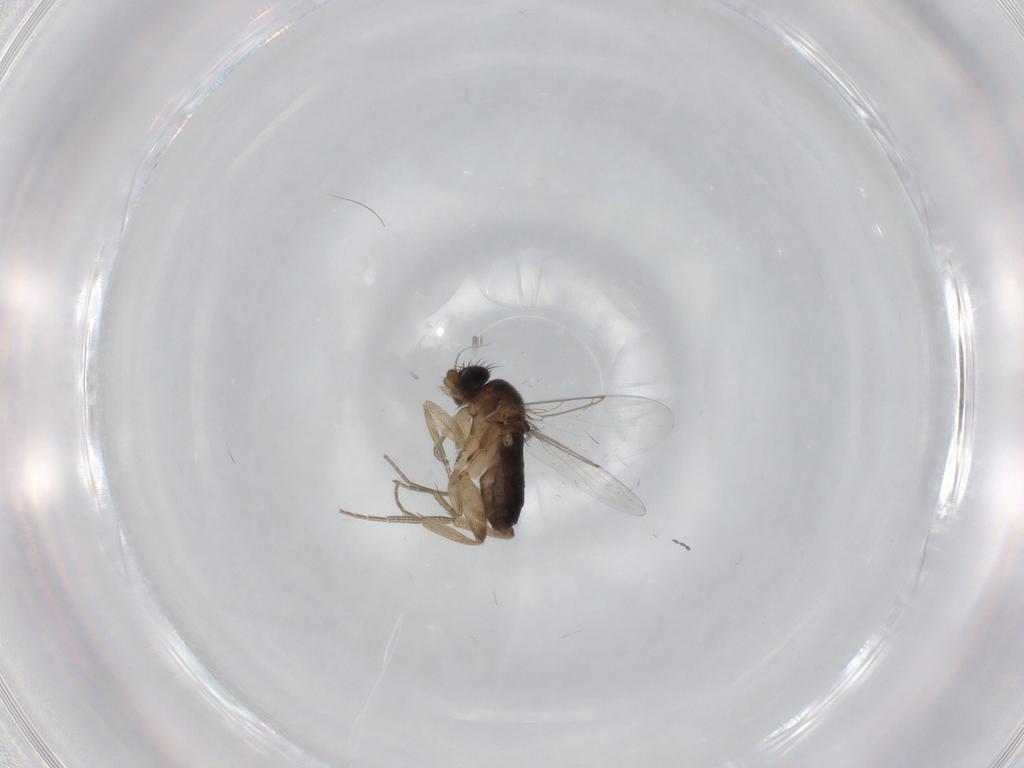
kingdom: Animalia
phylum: Arthropoda
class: Insecta
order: Diptera
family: Phoridae
